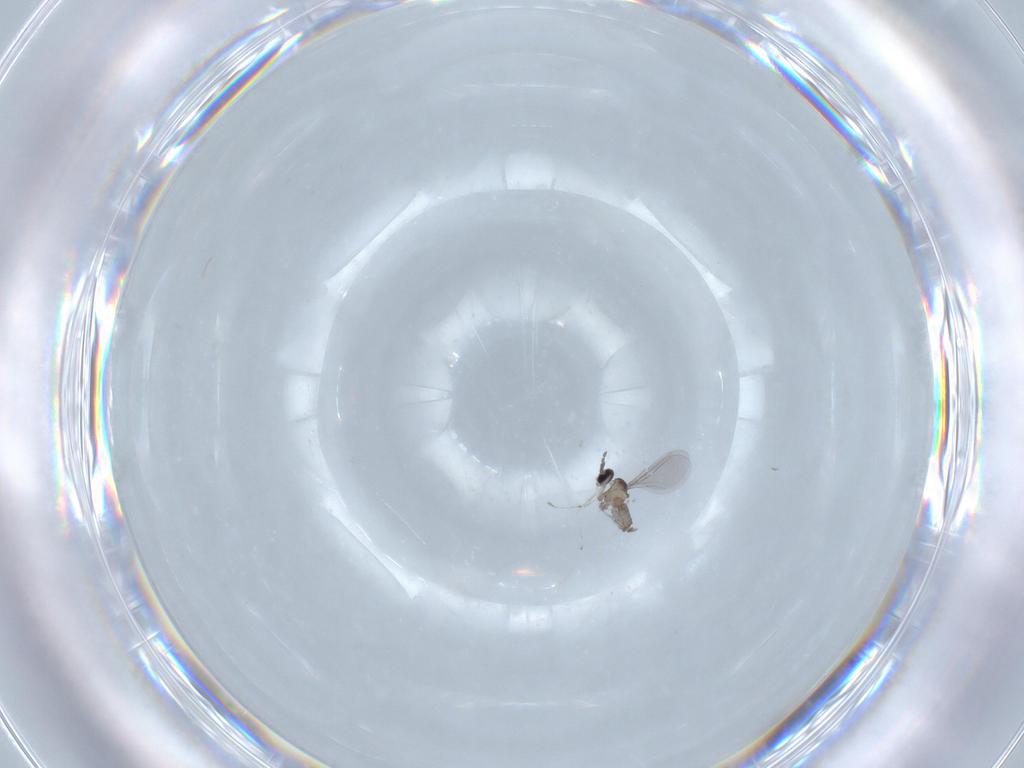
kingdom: Animalia
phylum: Arthropoda
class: Insecta
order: Diptera
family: Cecidomyiidae
